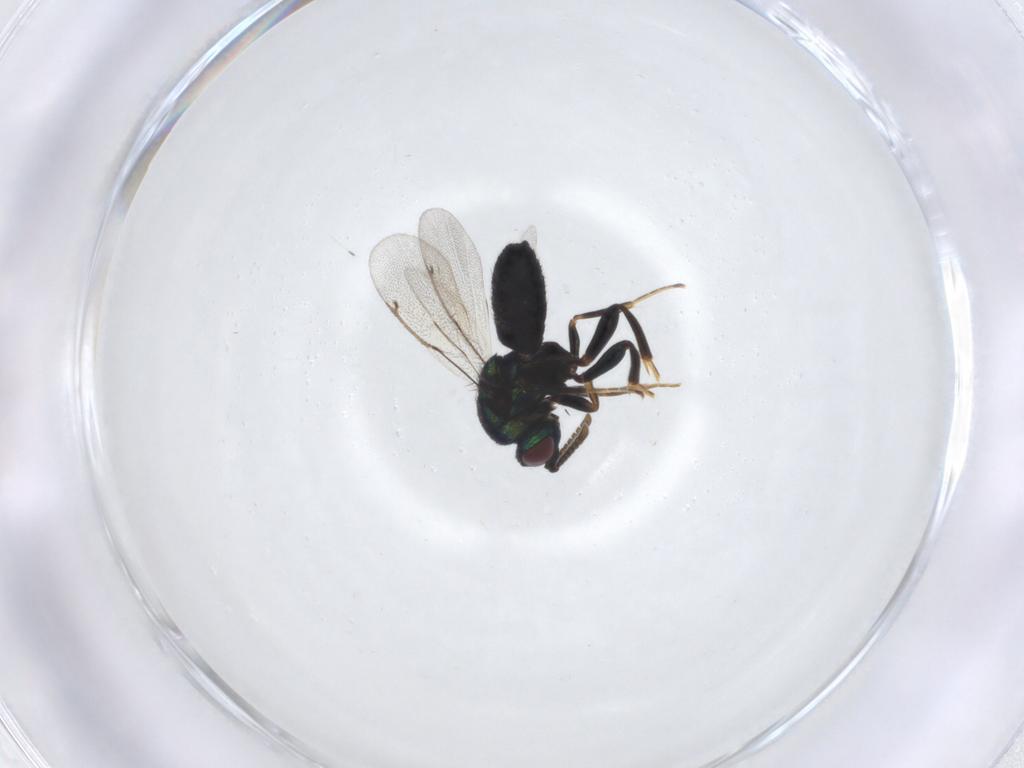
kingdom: Animalia
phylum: Arthropoda
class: Insecta
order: Hymenoptera
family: Ormyridae
